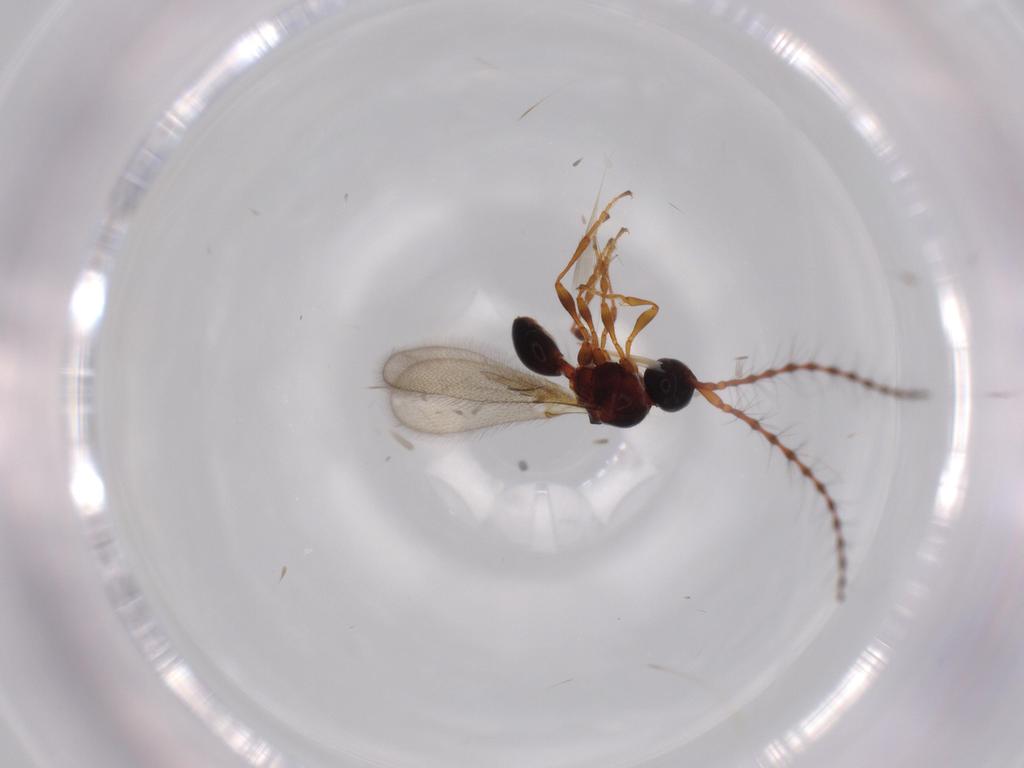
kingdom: Animalia
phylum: Arthropoda
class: Insecta
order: Hymenoptera
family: Diapriidae
